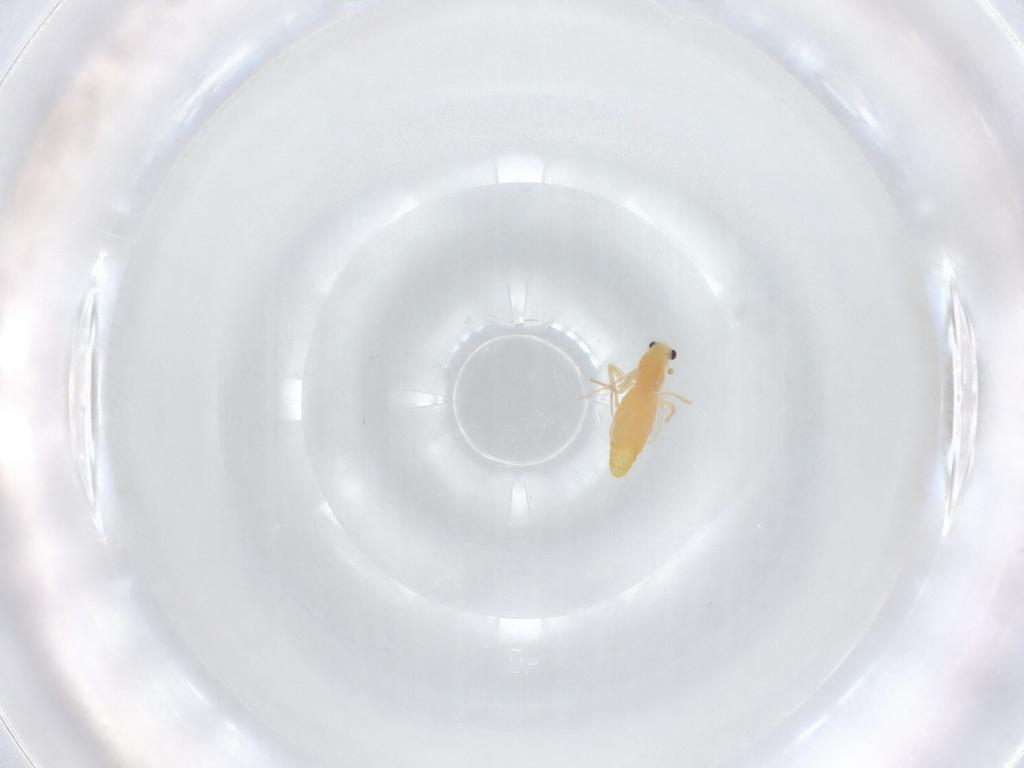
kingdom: Animalia
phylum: Arthropoda
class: Insecta
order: Diptera
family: Chironomidae
